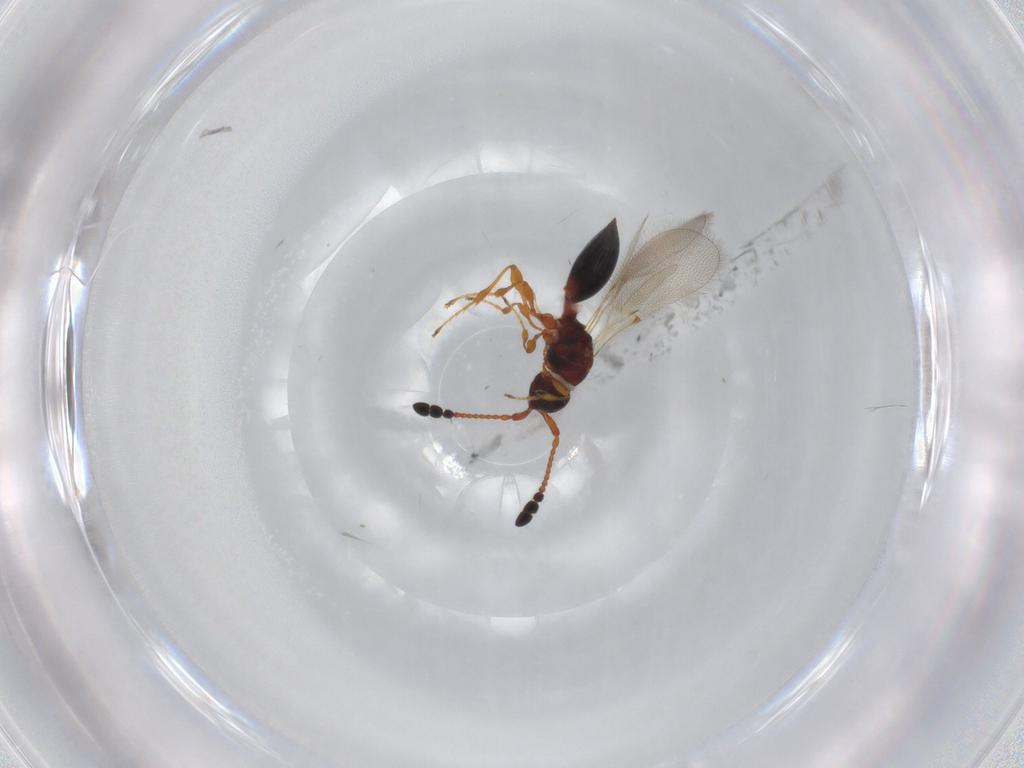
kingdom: Animalia
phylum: Arthropoda
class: Insecta
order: Hymenoptera
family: Diapriidae
